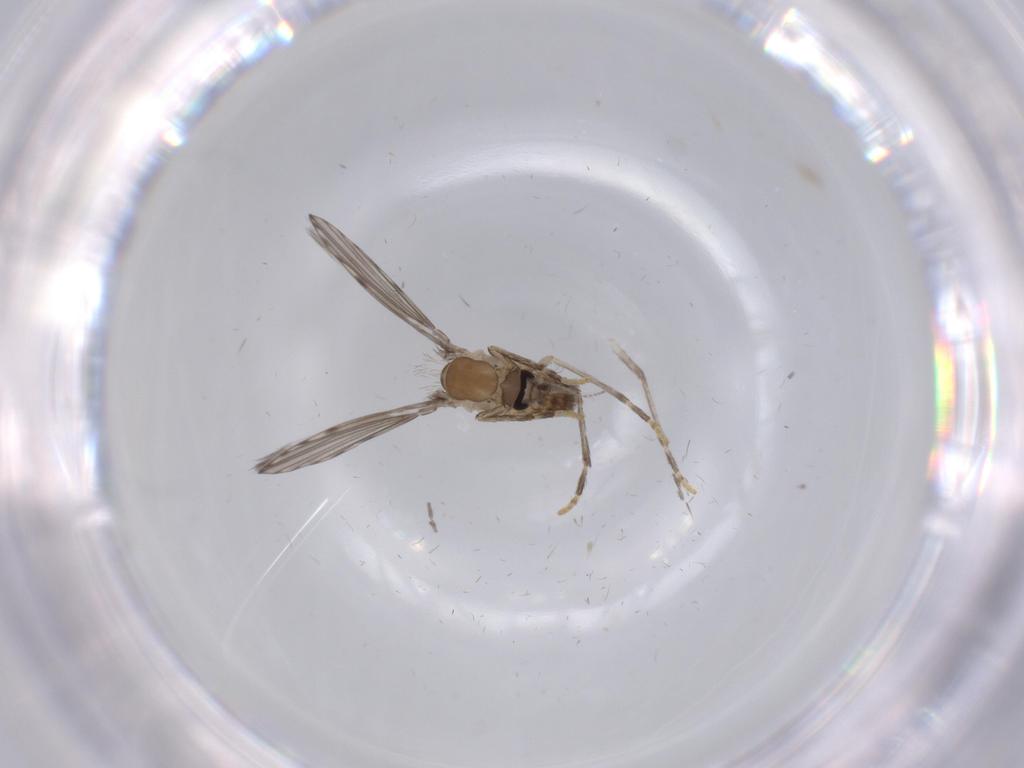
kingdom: Animalia
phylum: Arthropoda
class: Insecta
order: Diptera
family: Psychodidae
